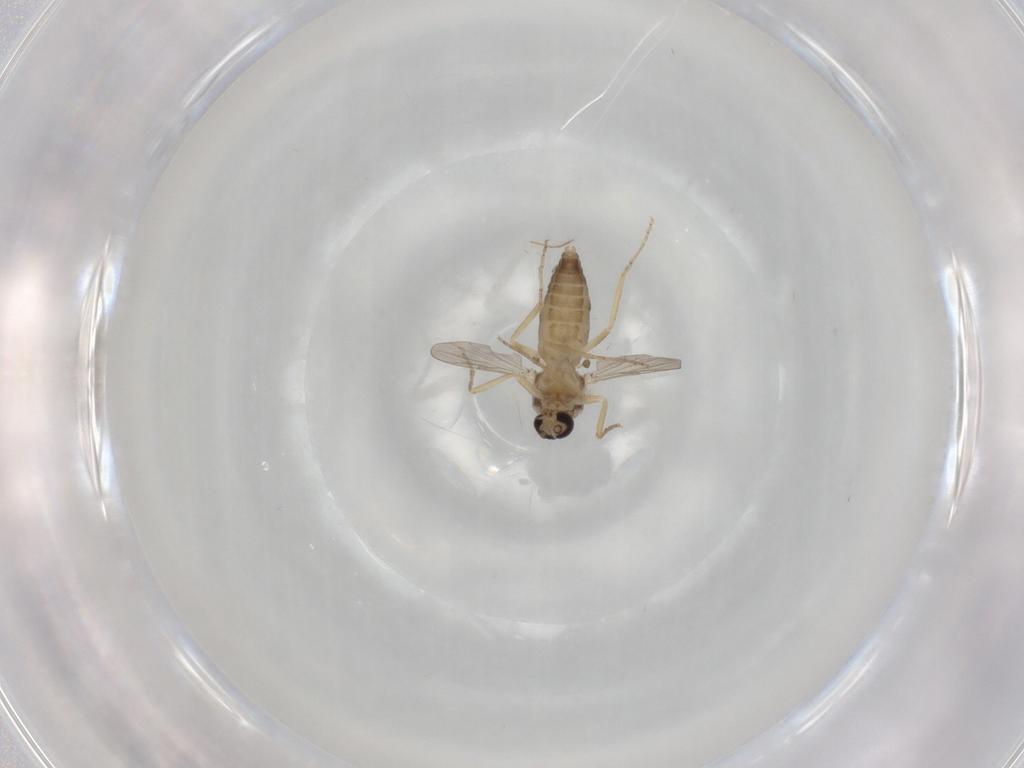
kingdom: Animalia
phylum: Arthropoda
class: Insecta
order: Diptera
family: Ceratopogonidae
